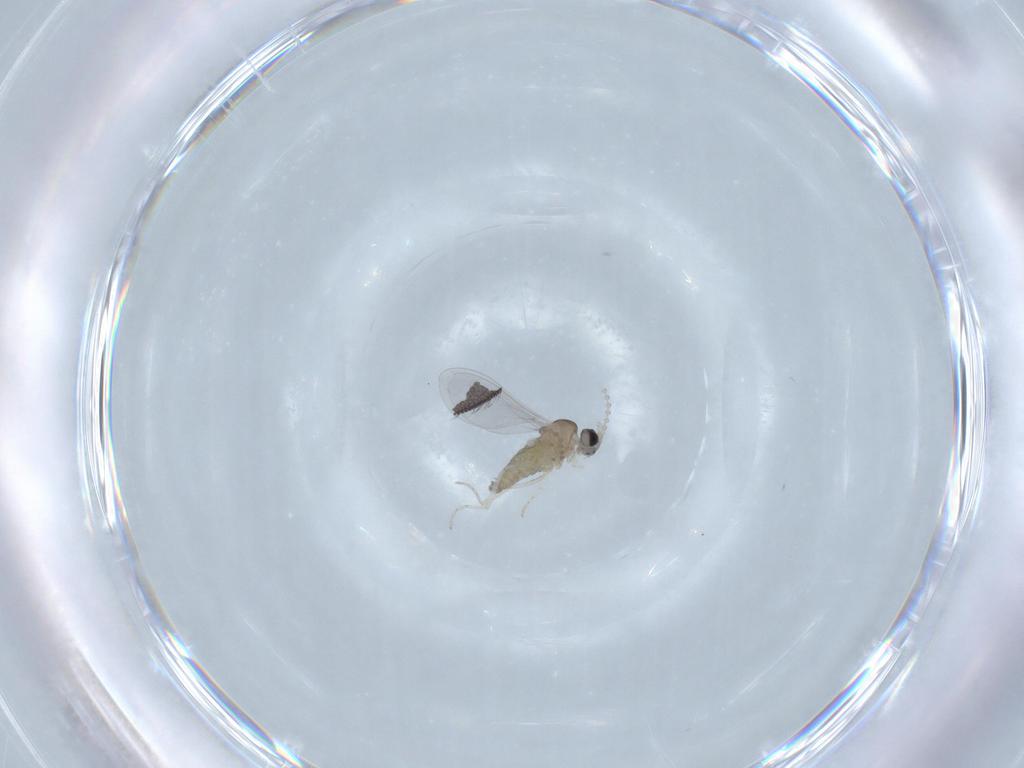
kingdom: Animalia
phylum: Arthropoda
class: Insecta
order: Diptera
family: Cecidomyiidae
